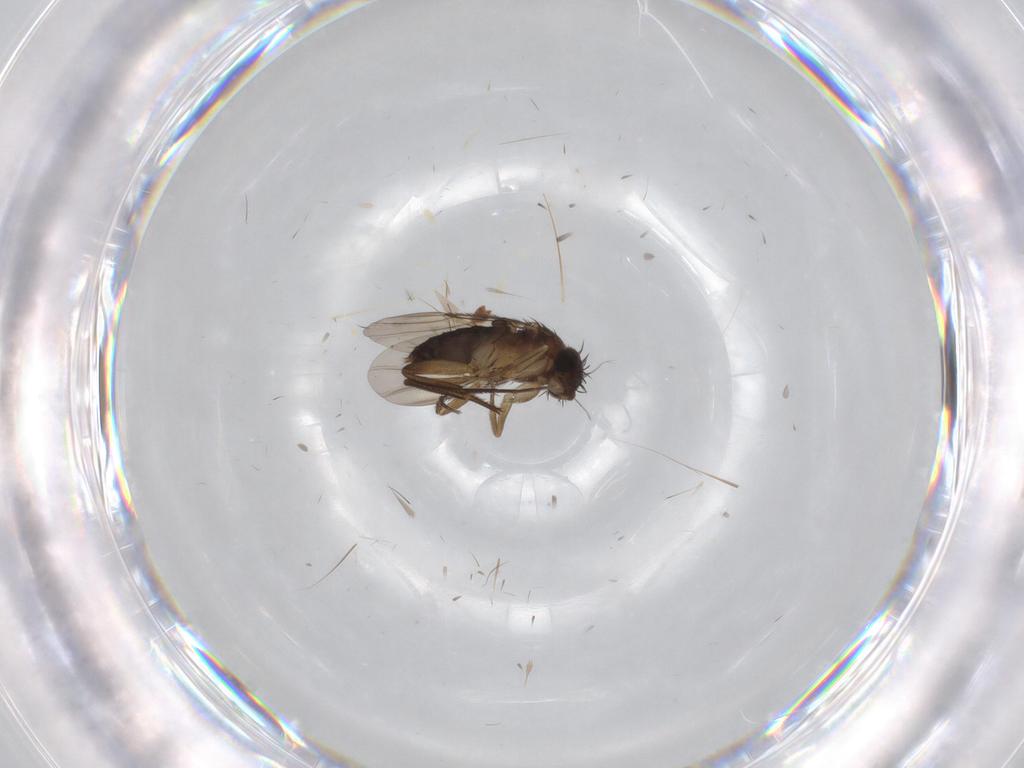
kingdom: Animalia
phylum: Arthropoda
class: Insecta
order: Diptera
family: Phoridae
